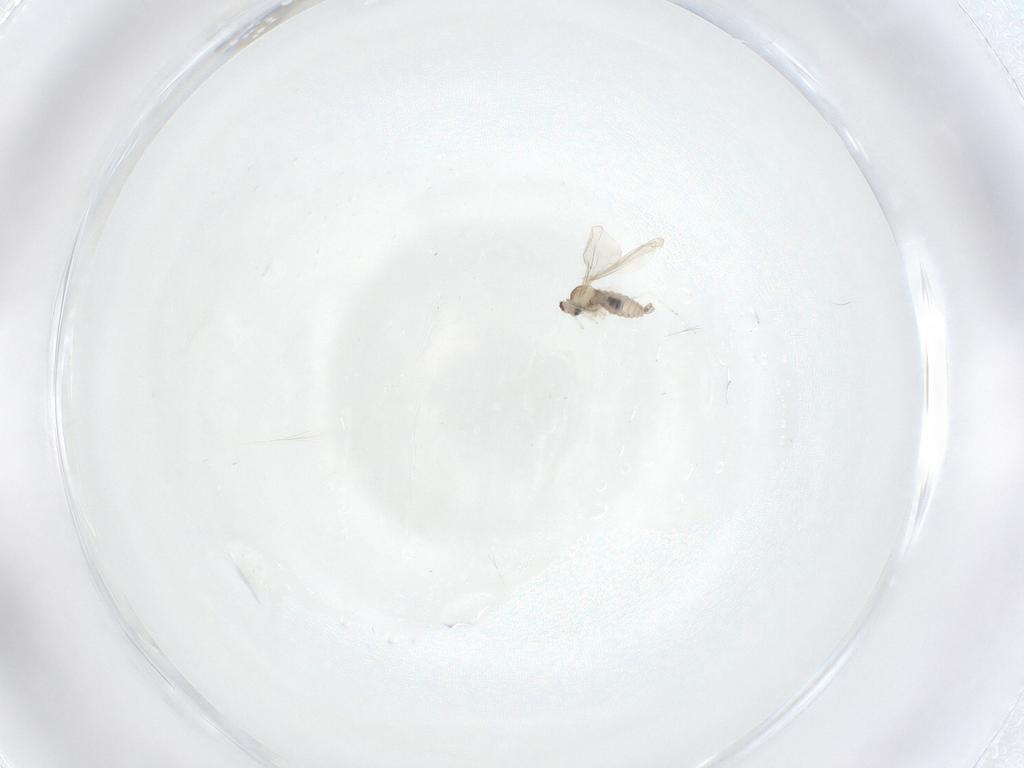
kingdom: Animalia
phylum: Arthropoda
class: Insecta
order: Diptera
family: Cecidomyiidae
